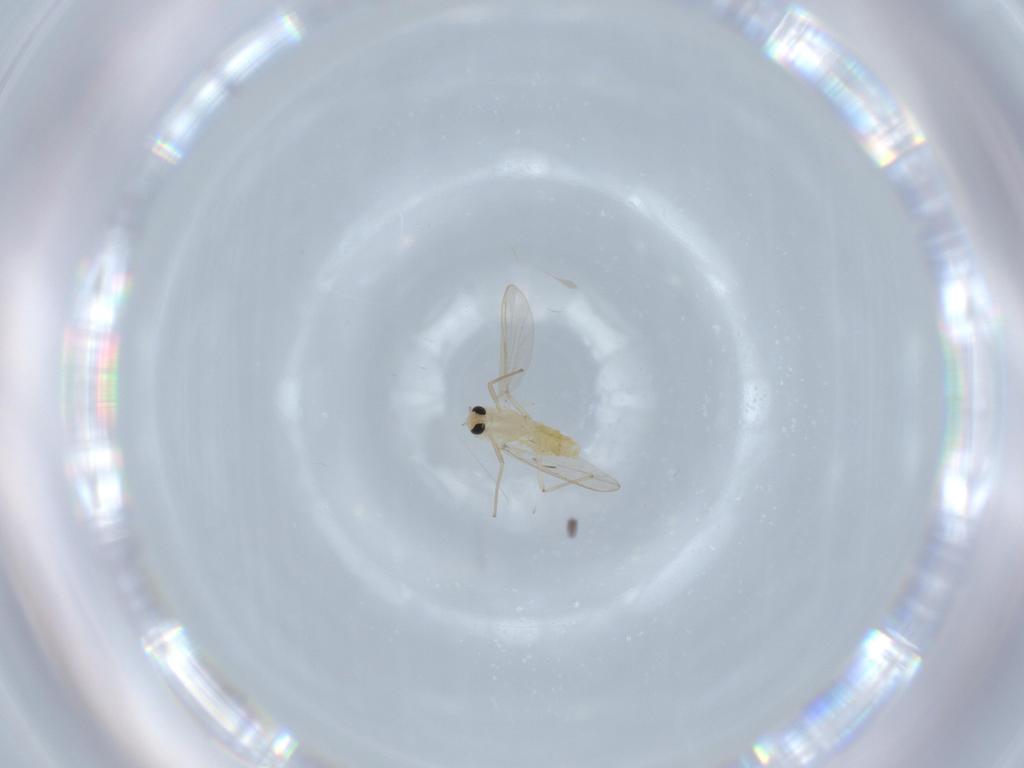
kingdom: Animalia
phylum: Arthropoda
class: Insecta
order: Diptera
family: Chironomidae
